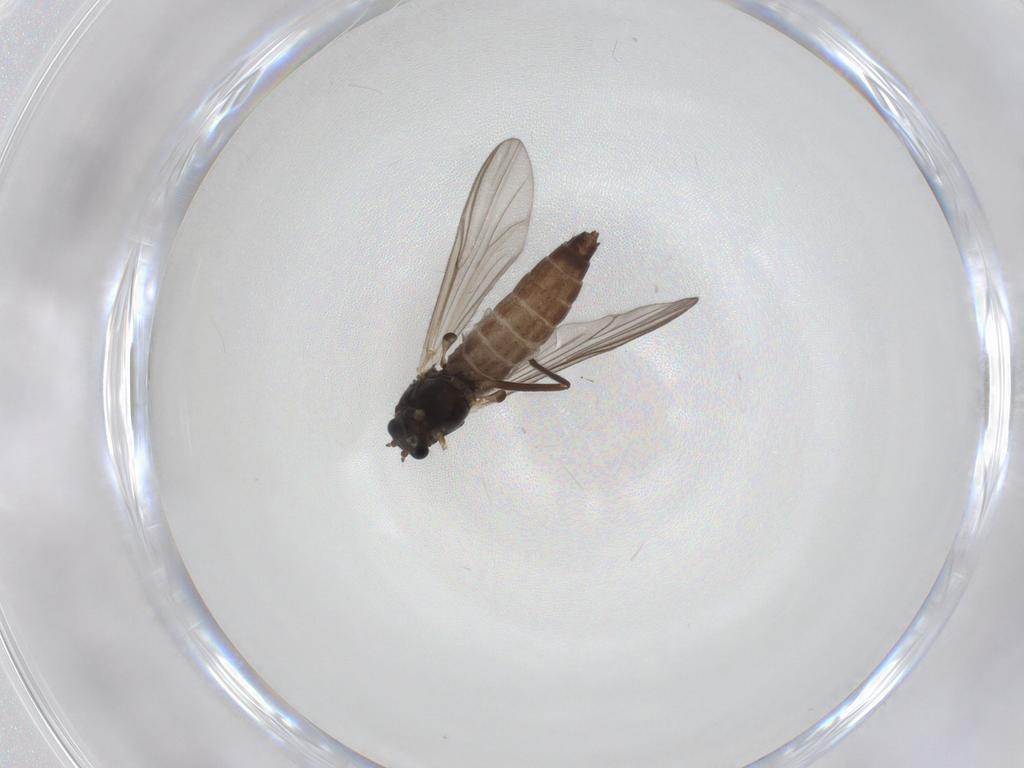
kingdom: Animalia
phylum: Arthropoda
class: Insecta
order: Diptera
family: Chironomidae
